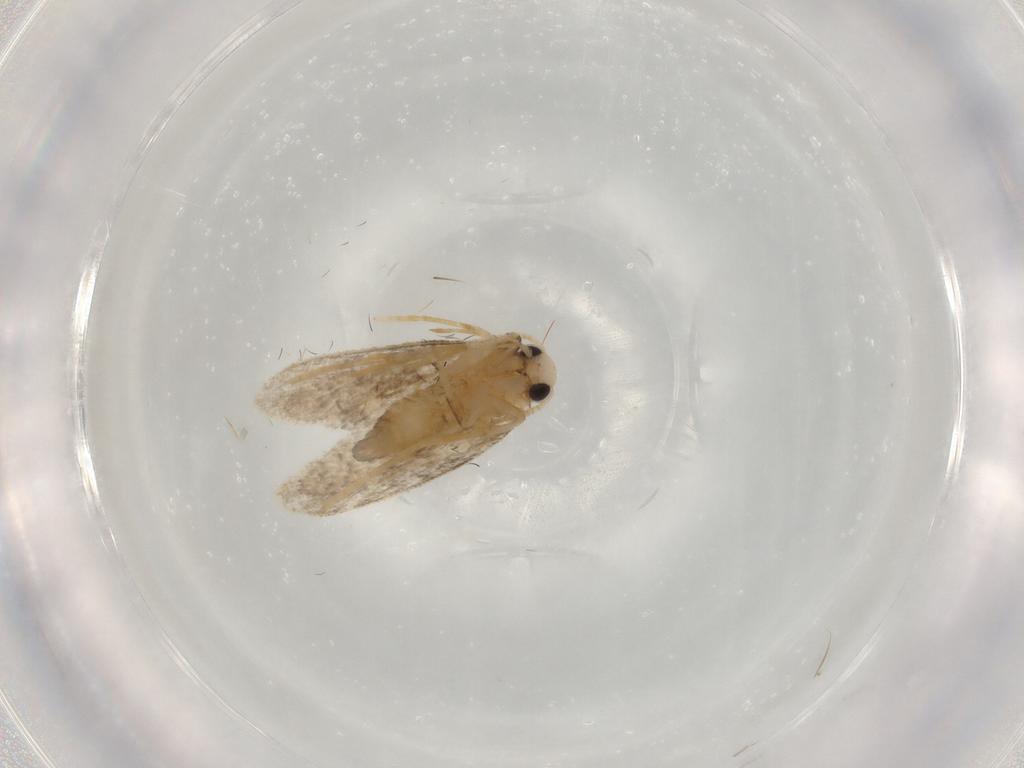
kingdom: Animalia
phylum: Arthropoda
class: Insecta
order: Lepidoptera
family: Psychidae
